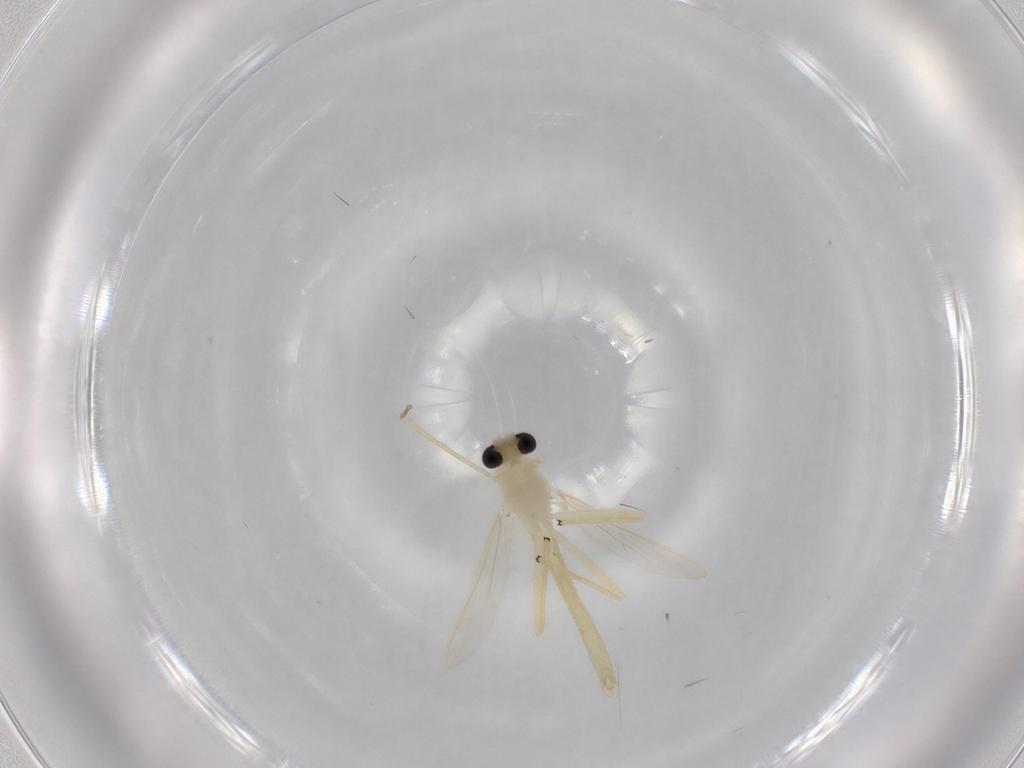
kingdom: Animalia
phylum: Arthropoda
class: Insecta
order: Diptera
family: Chironomidae
